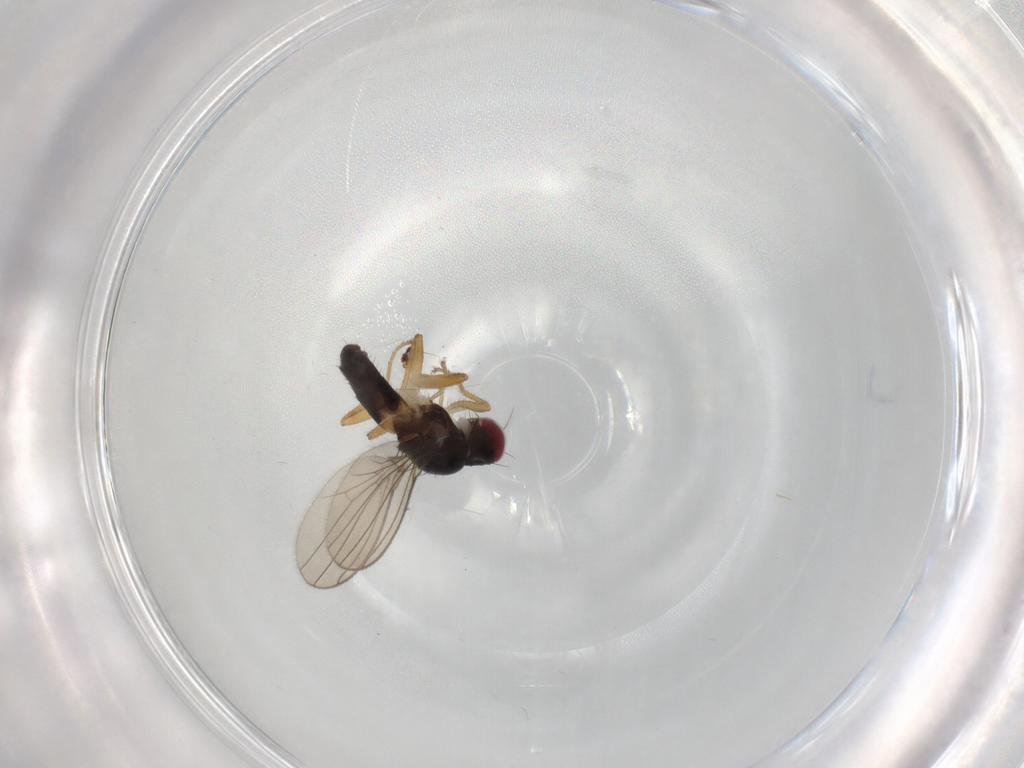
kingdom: Animalia
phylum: Arthropoda
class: Insecta
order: Diptera
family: Anthomyzidae
